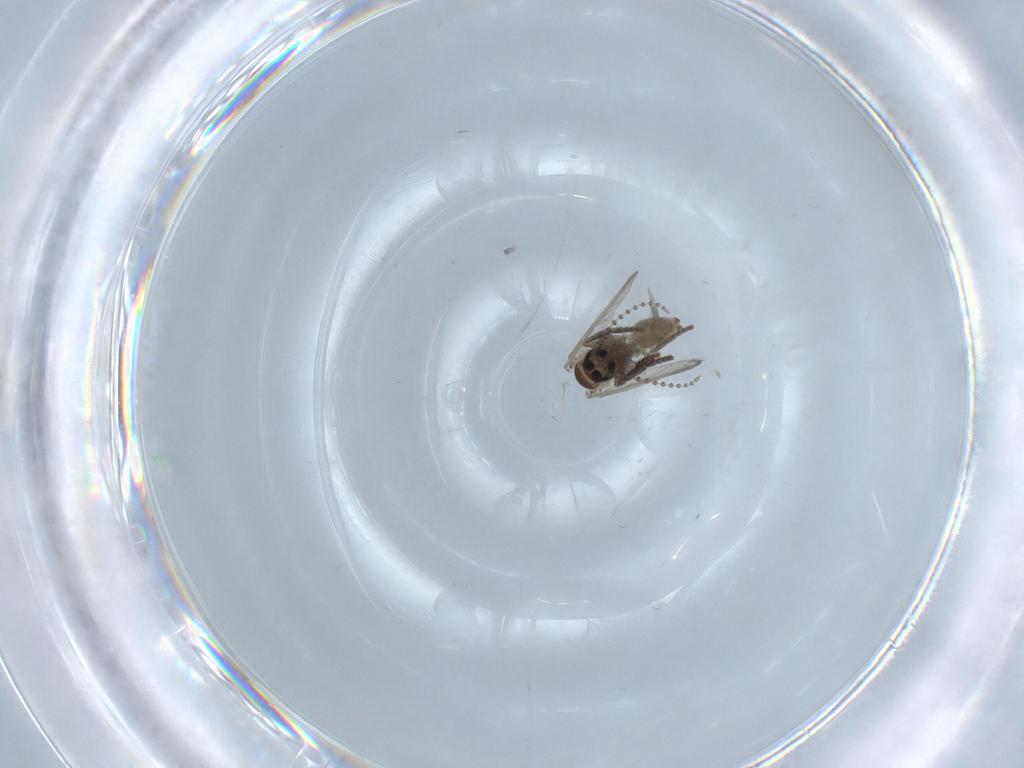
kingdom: Animalia
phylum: Arthropoda
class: Insecta
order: Diptera
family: Psychodidae
